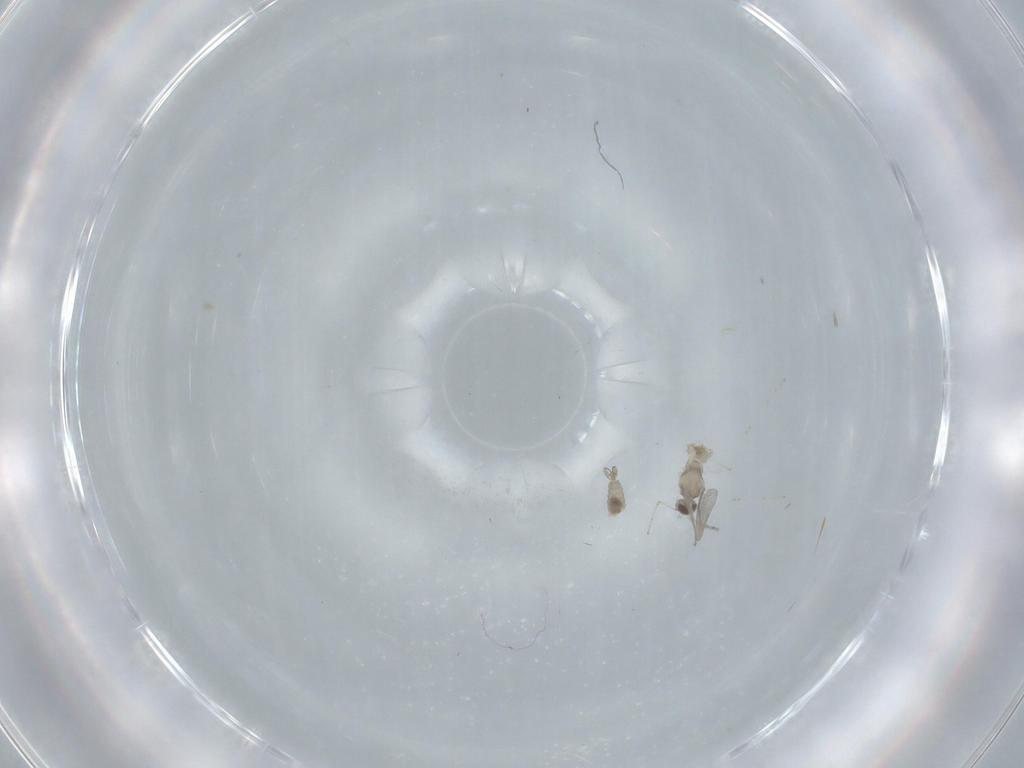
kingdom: Animalia
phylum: Arthropoda
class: Insecta
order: Diptera
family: Cecidomyiidae
